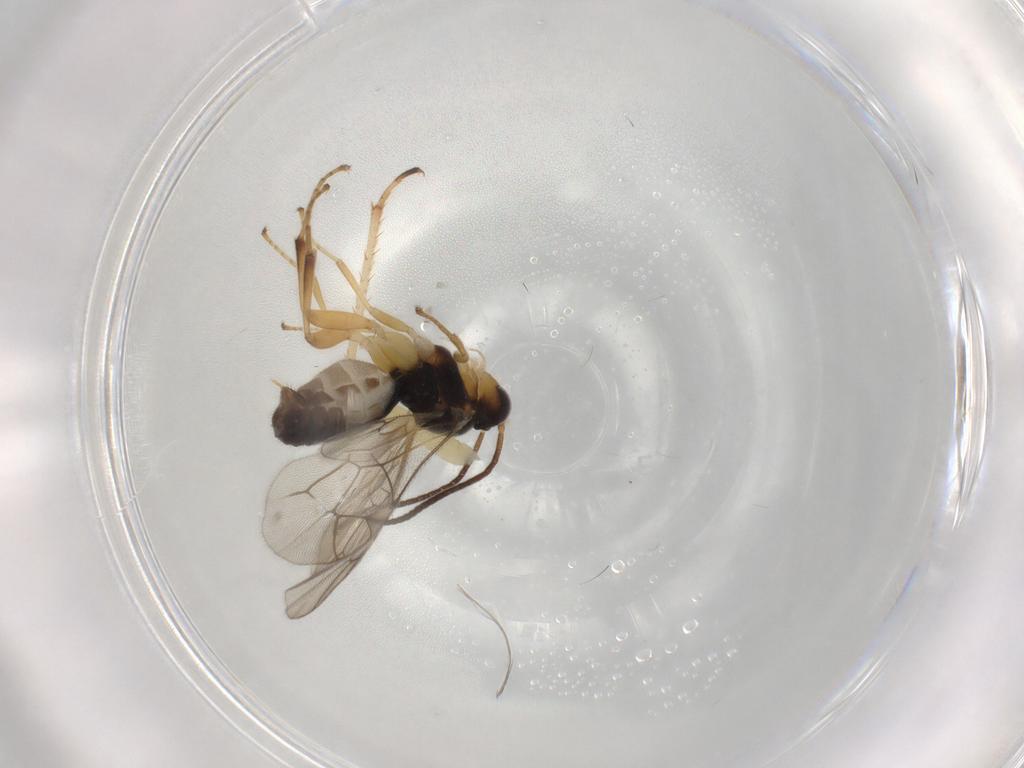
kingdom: Animalia
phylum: Arthropoda
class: Insecta
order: Hymenoptera
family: Ichneumonidae
